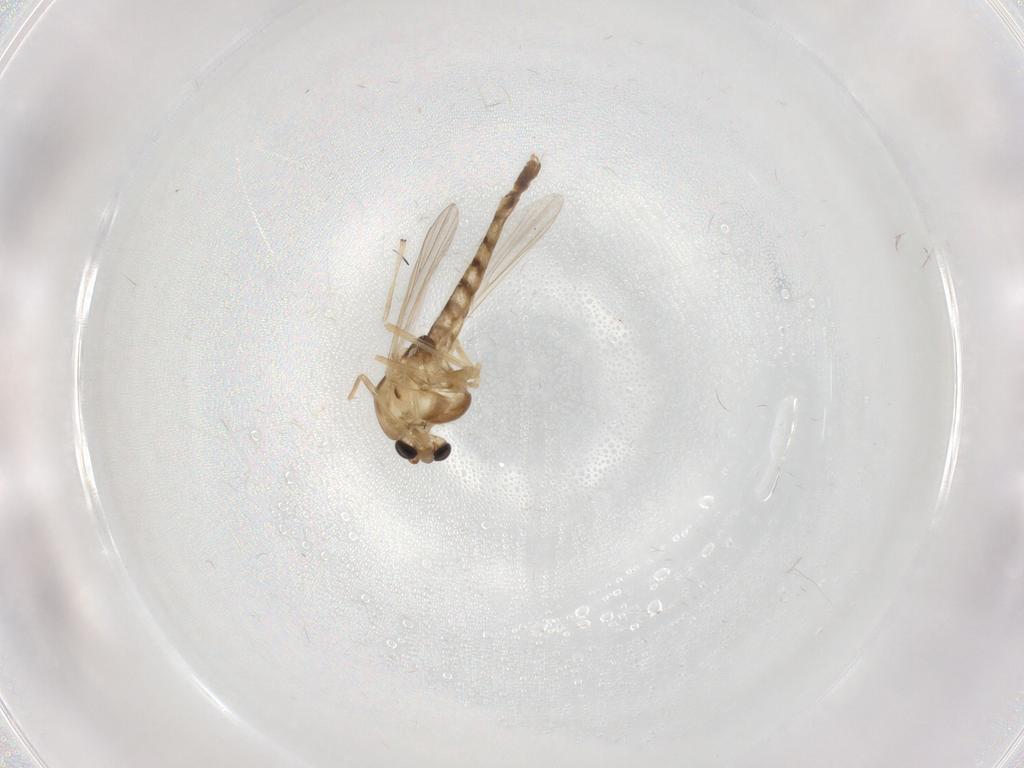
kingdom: Animalia
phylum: Arthropoda
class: Insecta
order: Diptera
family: Chironomidae
